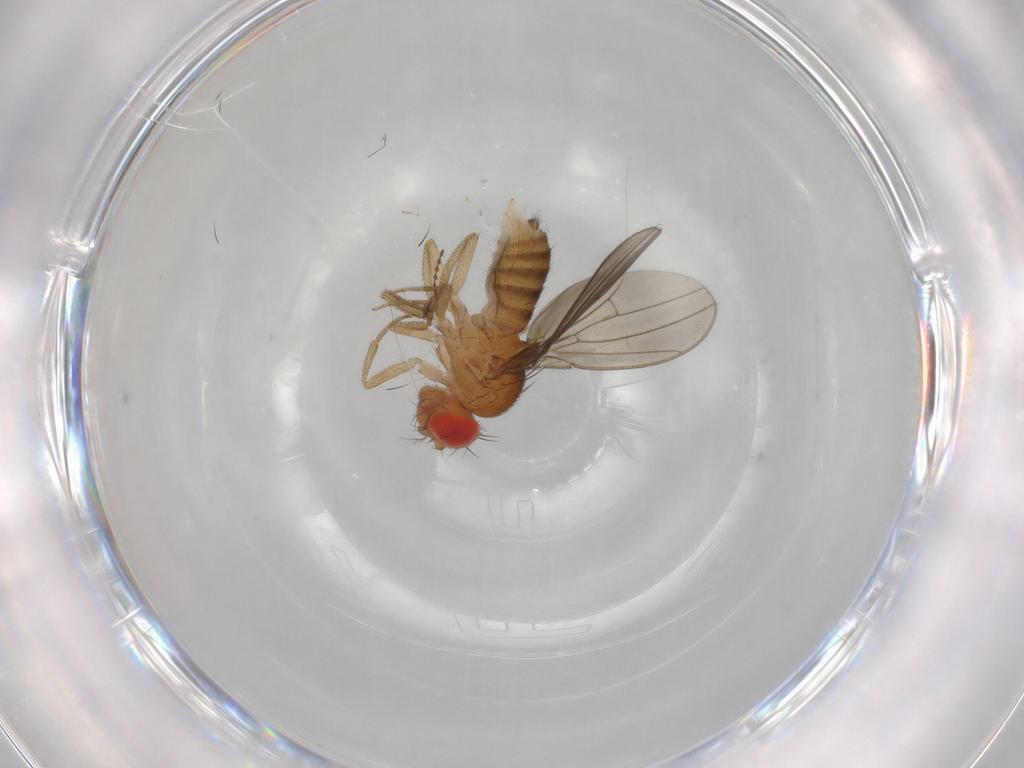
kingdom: Animalia
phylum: Arthropoda
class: Insecta
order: Diptera
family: Drosophilidae
